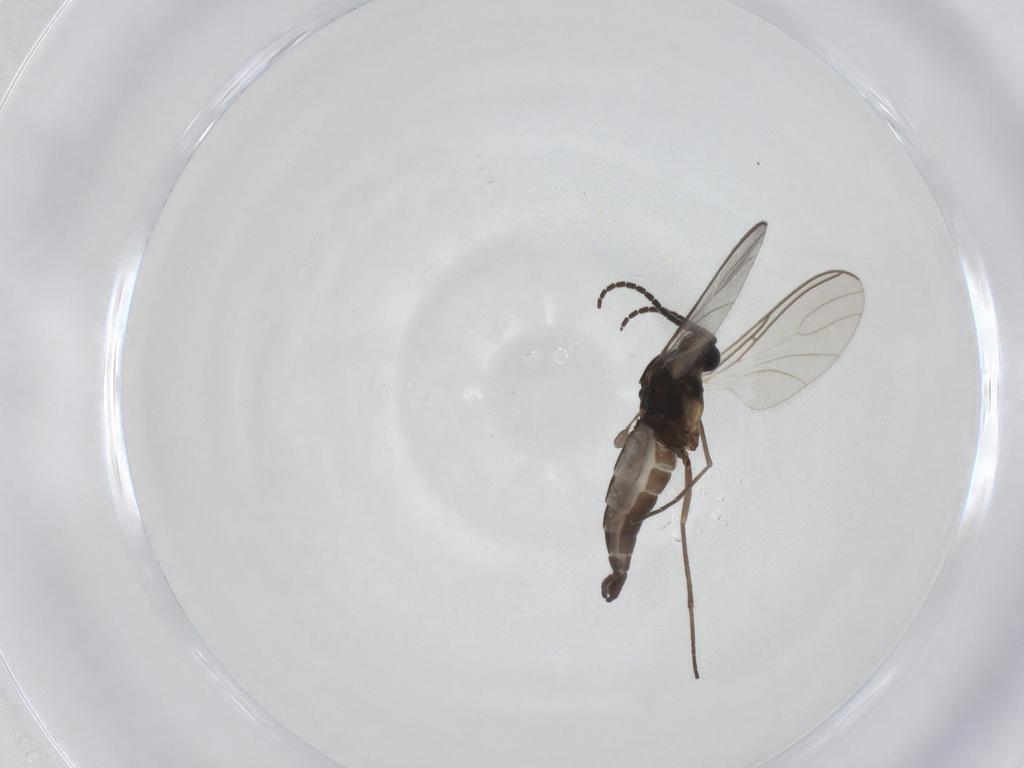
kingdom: Animalia
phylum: Arthropoda
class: Insecta
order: Diptera
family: Sciaridae
